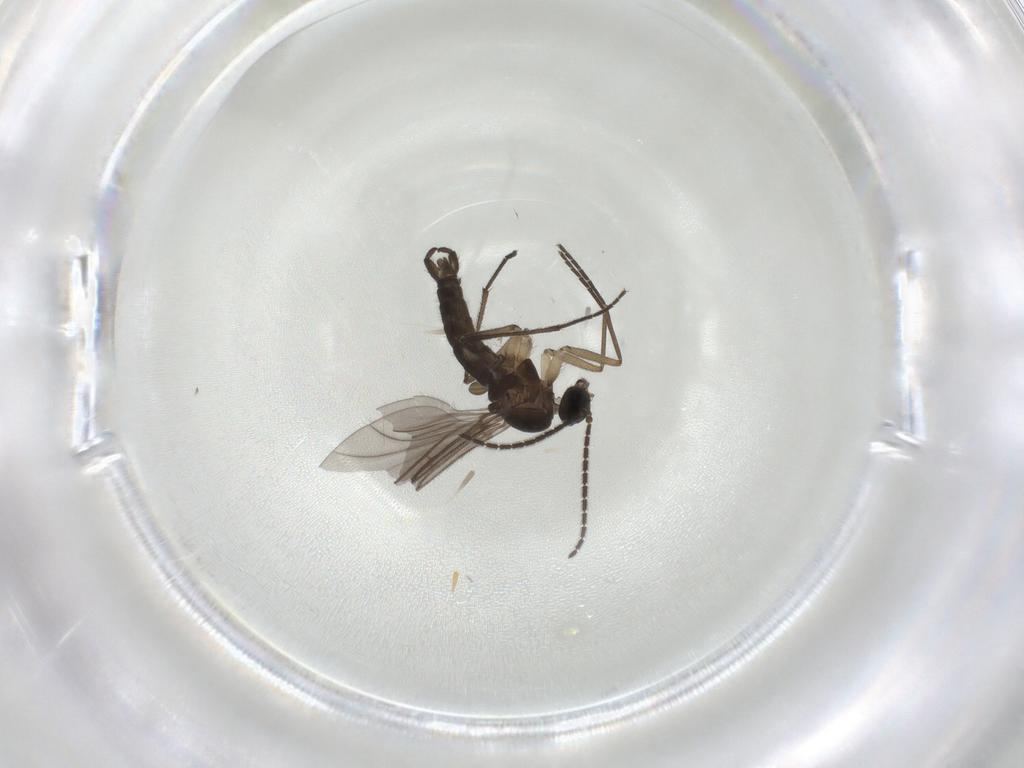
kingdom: Animalia
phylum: Arthropoda
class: Insecta
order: Diptera
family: Sciaridae
